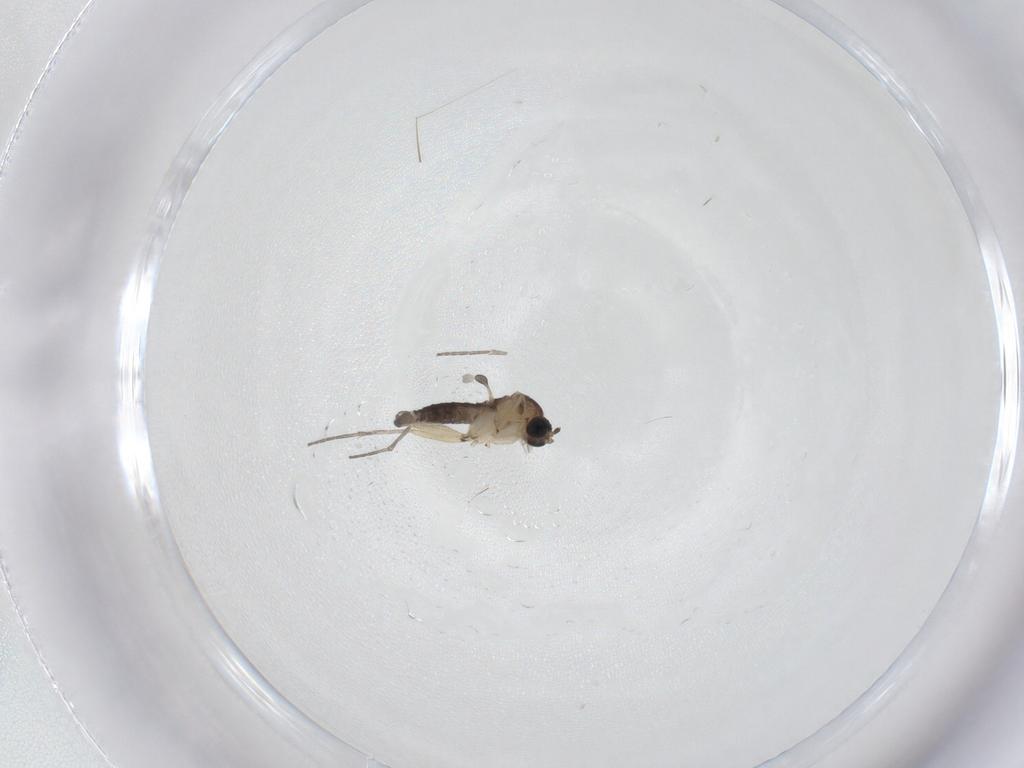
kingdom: Animalia
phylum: Arthropoda
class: Insecta
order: Diptera
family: Sciaridae
